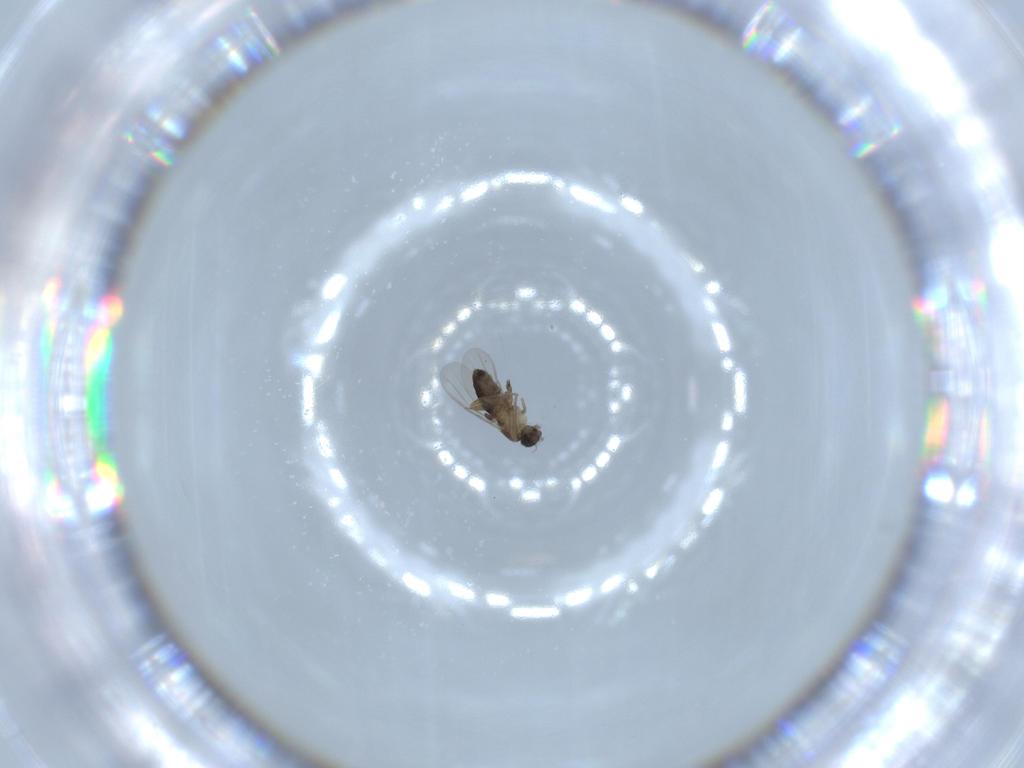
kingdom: Animalia
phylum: Arthropoda
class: Insecta
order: Diptera
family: Phoridae
